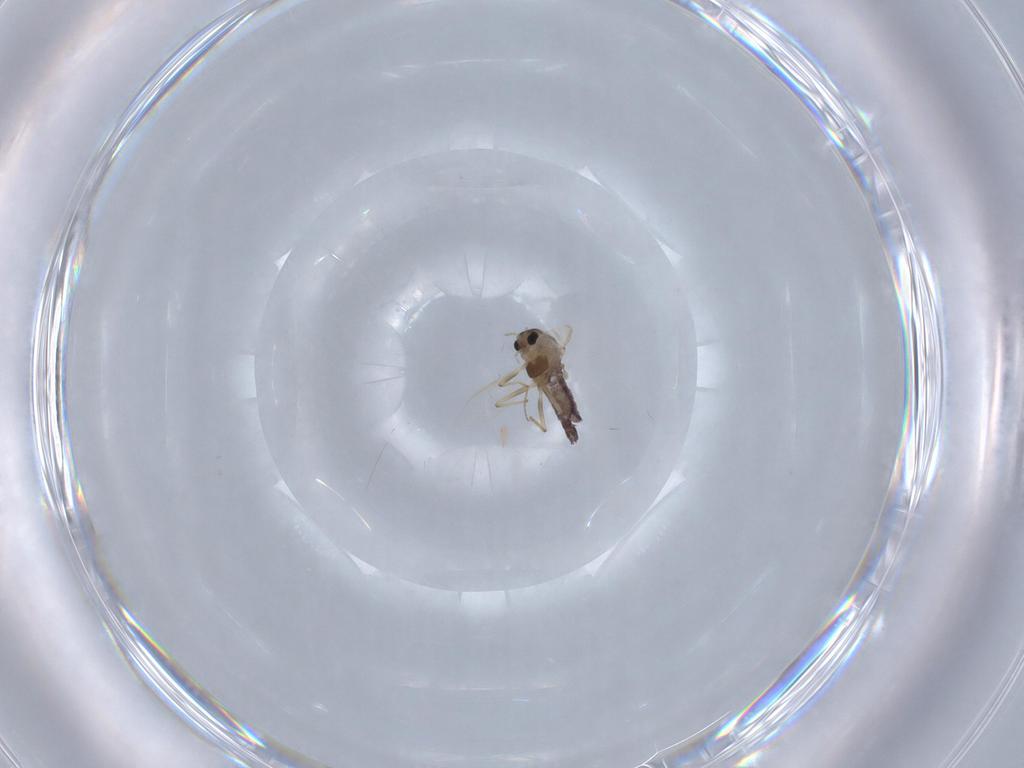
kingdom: Animalia
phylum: Arthropoda
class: Insecta
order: Diptera
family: Chironomidae
